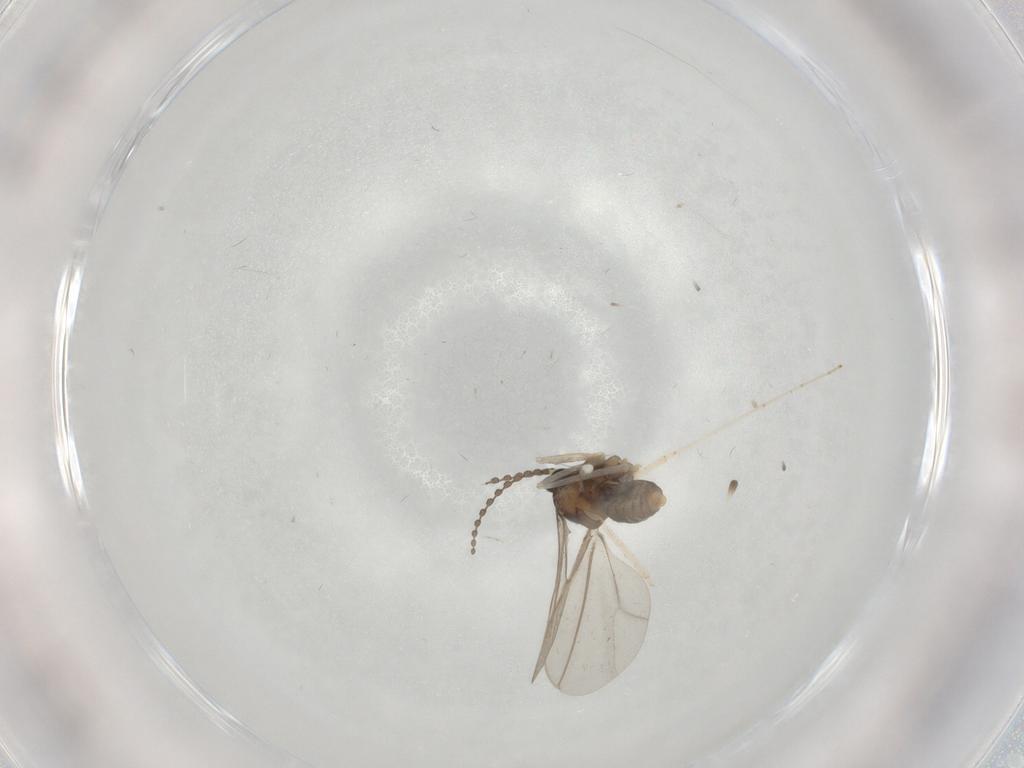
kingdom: Animalia
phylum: Arthropoda
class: Insecta
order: Diptera
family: Cecidomyiidae
